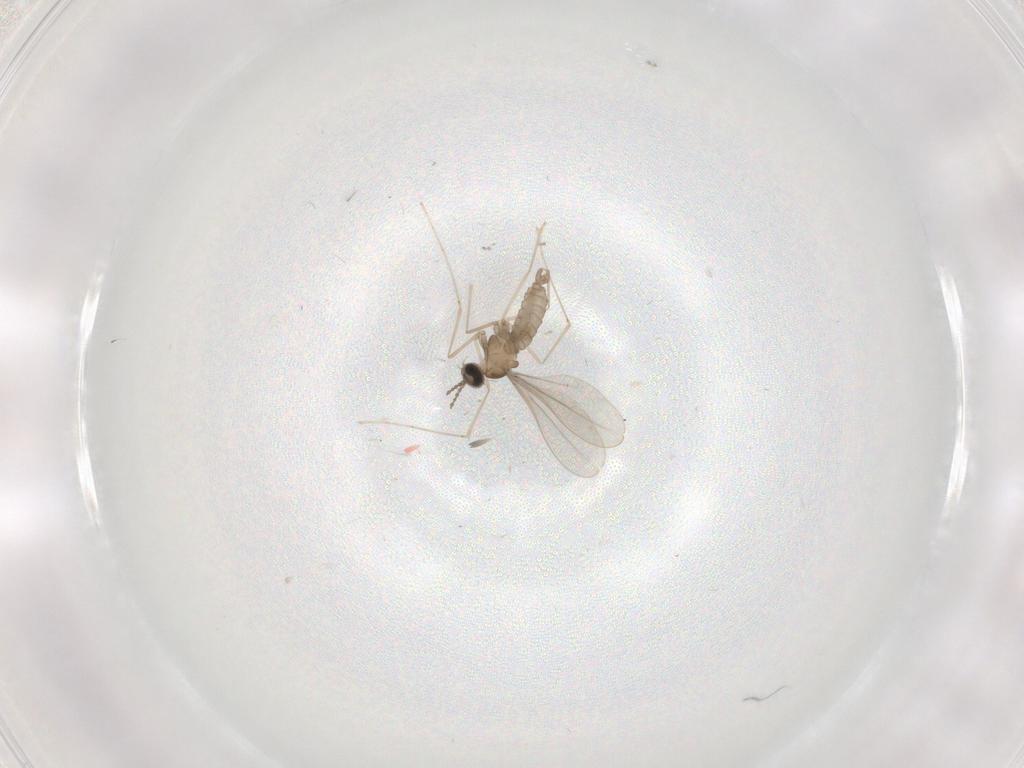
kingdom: Animalia
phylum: Arthropoda
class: Insecta
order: Diptera
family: Cecidomyiidae
